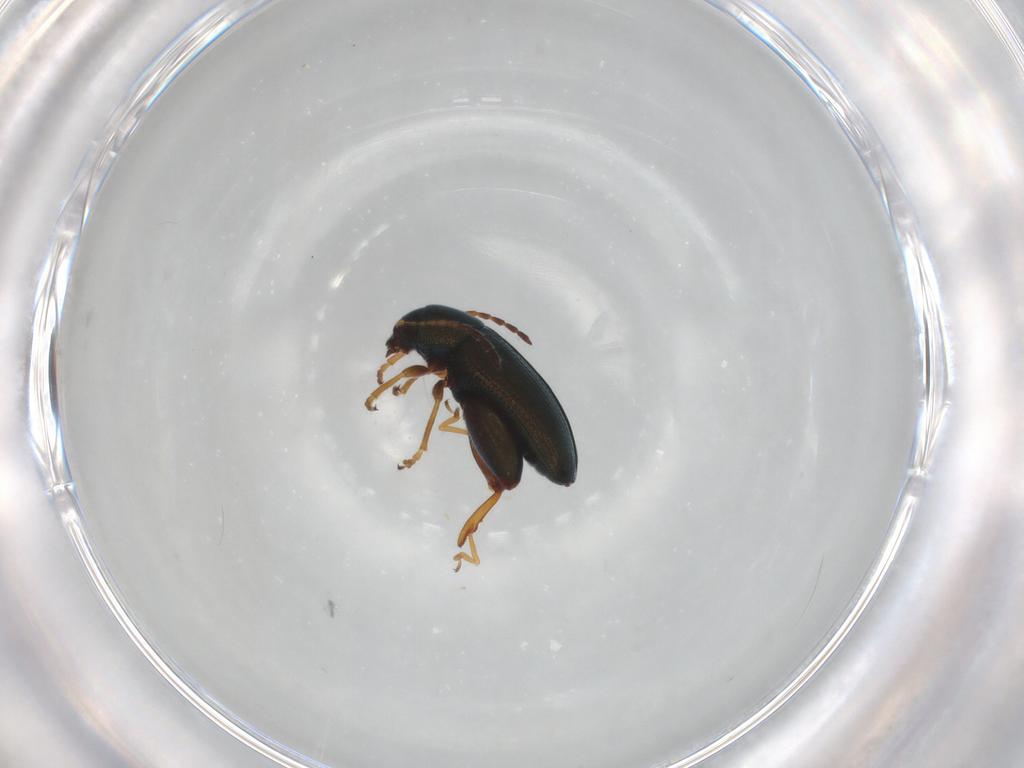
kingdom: Animalia
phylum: Arthropoda
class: Insecta
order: Coleoptera
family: Chrysomelidae
